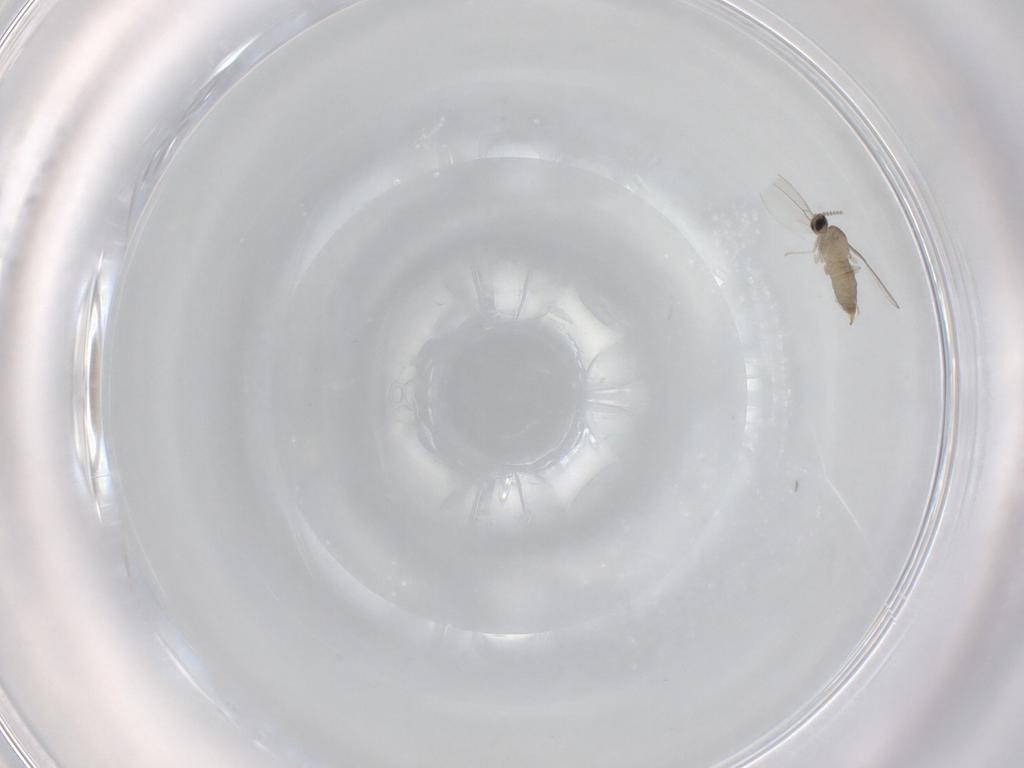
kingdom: Animalia
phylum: Arthropoda
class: Insecta
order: Diptera
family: Cecidomyiidae
